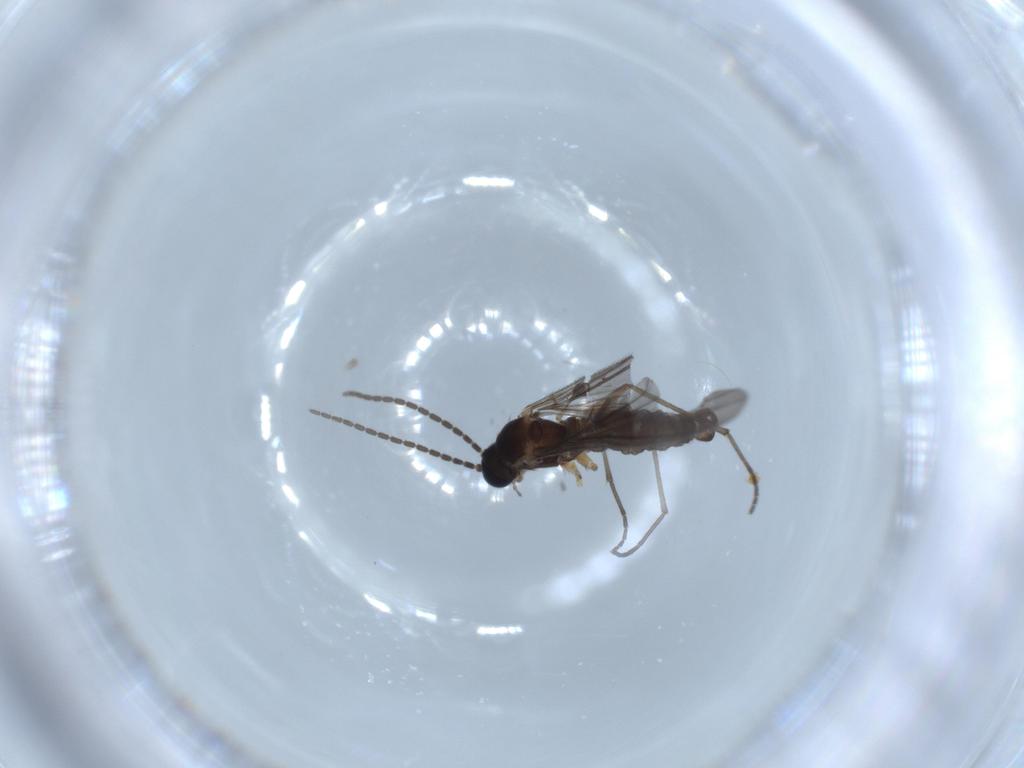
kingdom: Animalia
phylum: Arthropoda
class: Insecta
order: Diptera
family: Sciaridae
